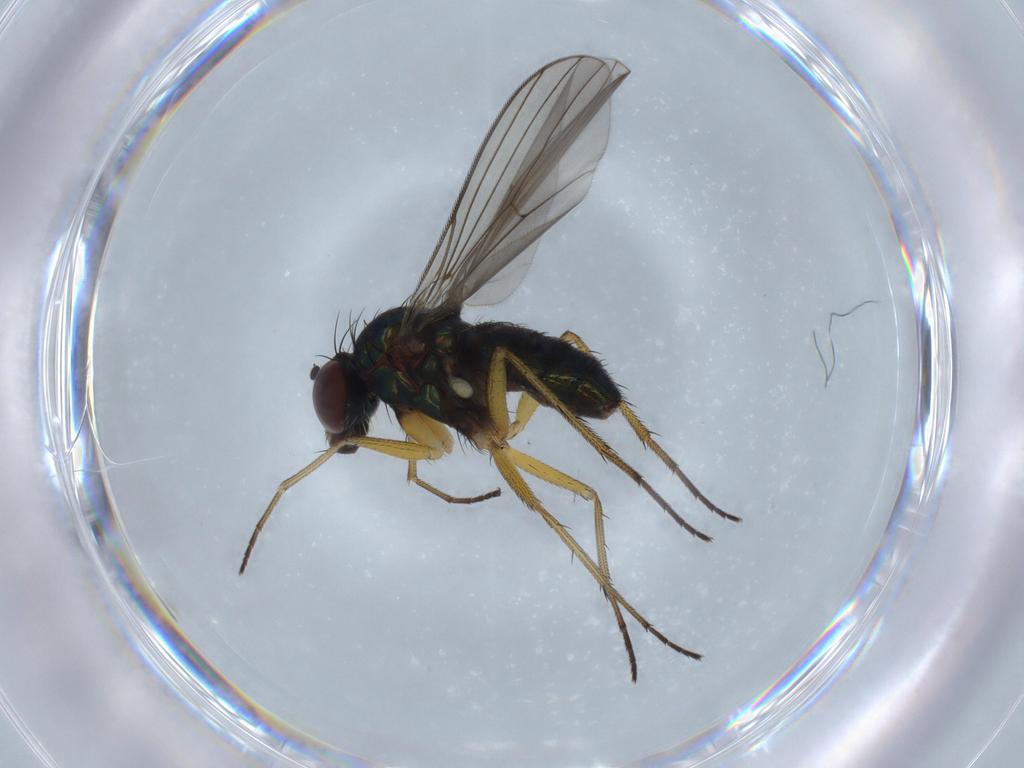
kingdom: Animalia
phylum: Arthropoda
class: Insecta
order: Diptera
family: Dolichopodidae
